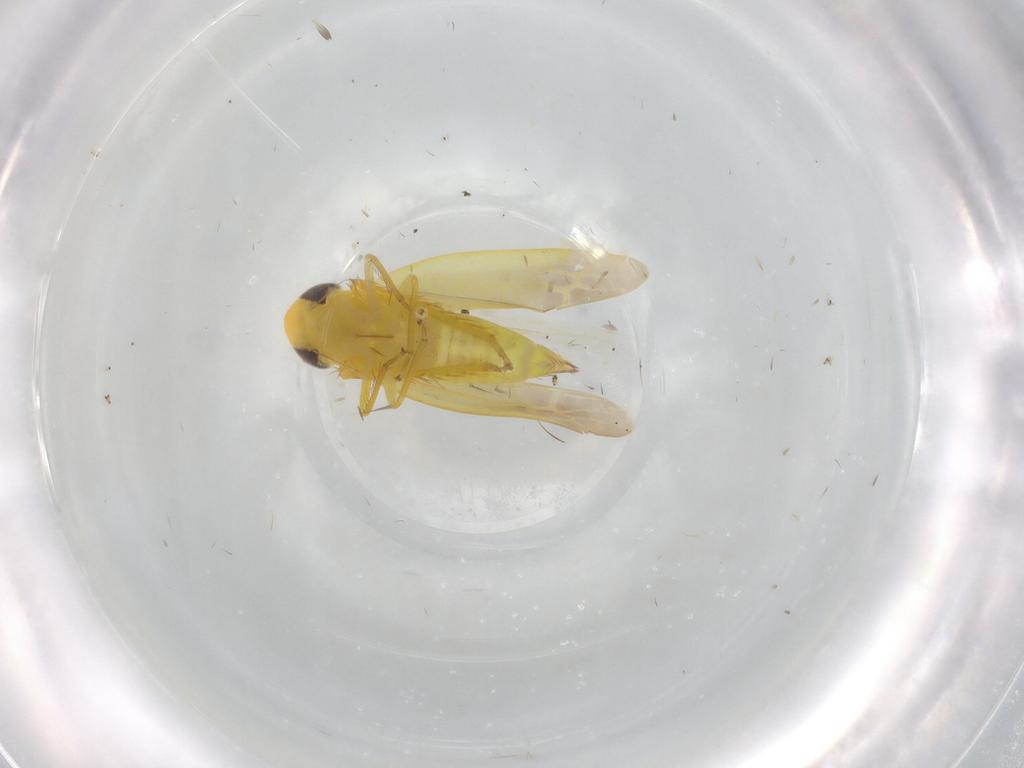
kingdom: Animalia
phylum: Arthropoda
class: Insecta
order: Hemiptera
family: Cicadellidae
